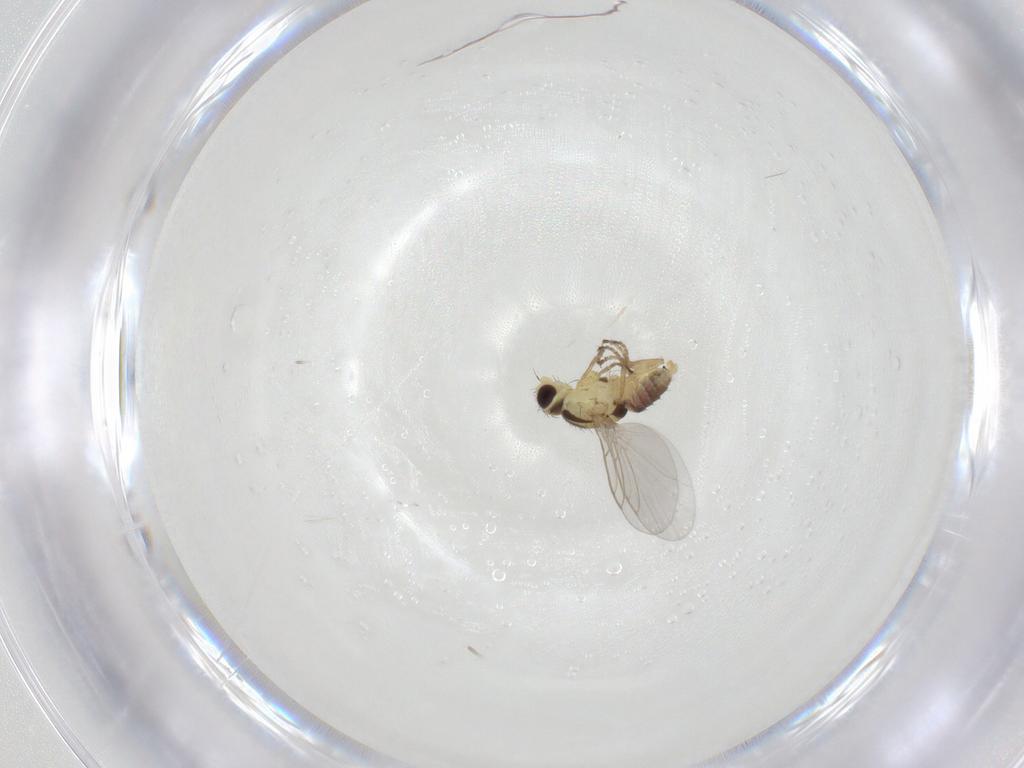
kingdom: Animalia
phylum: Arthropoda
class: Insecta
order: Diptera
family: Agromyzidae
